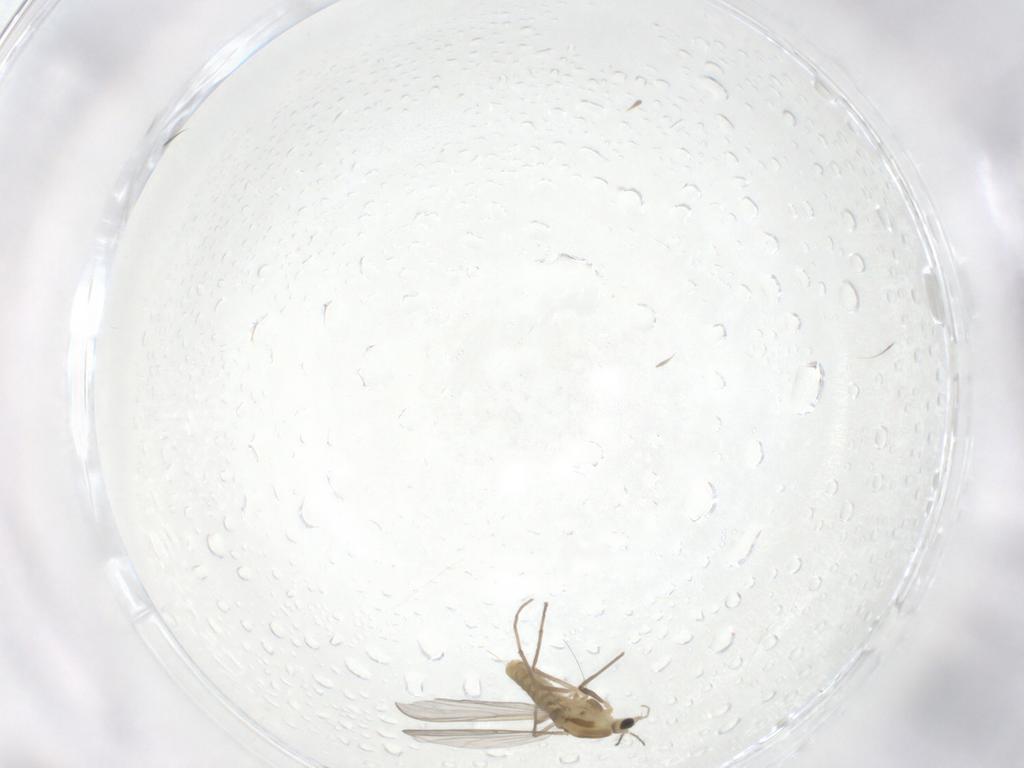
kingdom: Animalia
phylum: Arthropoda
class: Insecta
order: Diptera
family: Chironomidae
